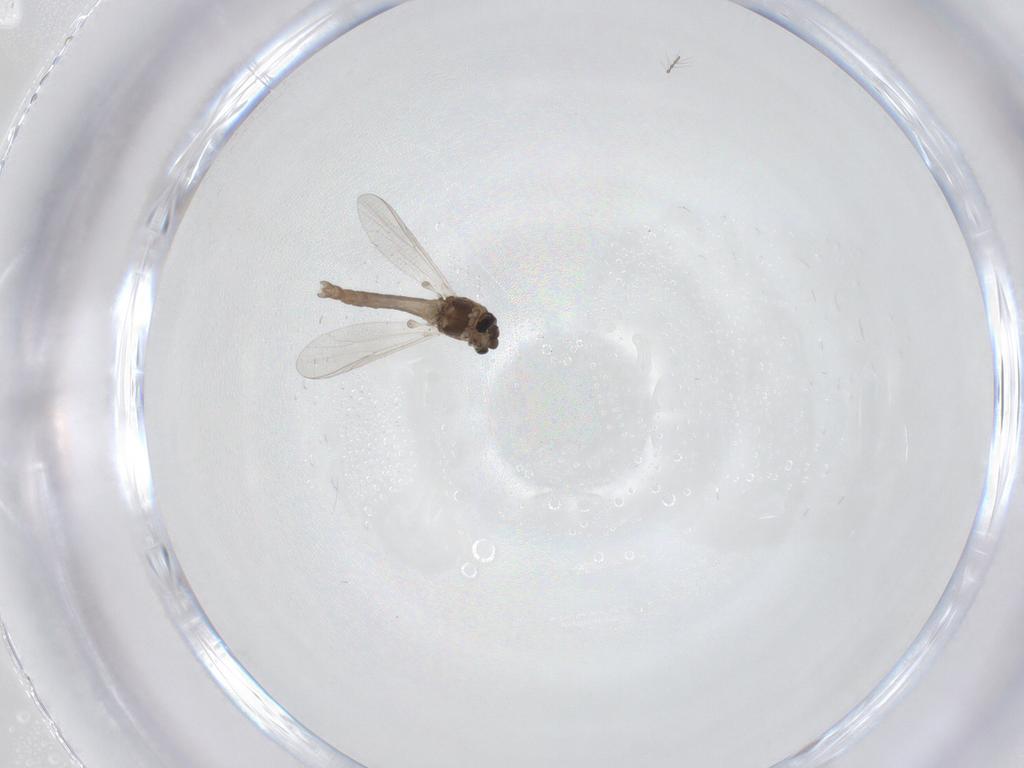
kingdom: Animalia
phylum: Arthropoda
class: Insecta
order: Diptera
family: Chironomidae
